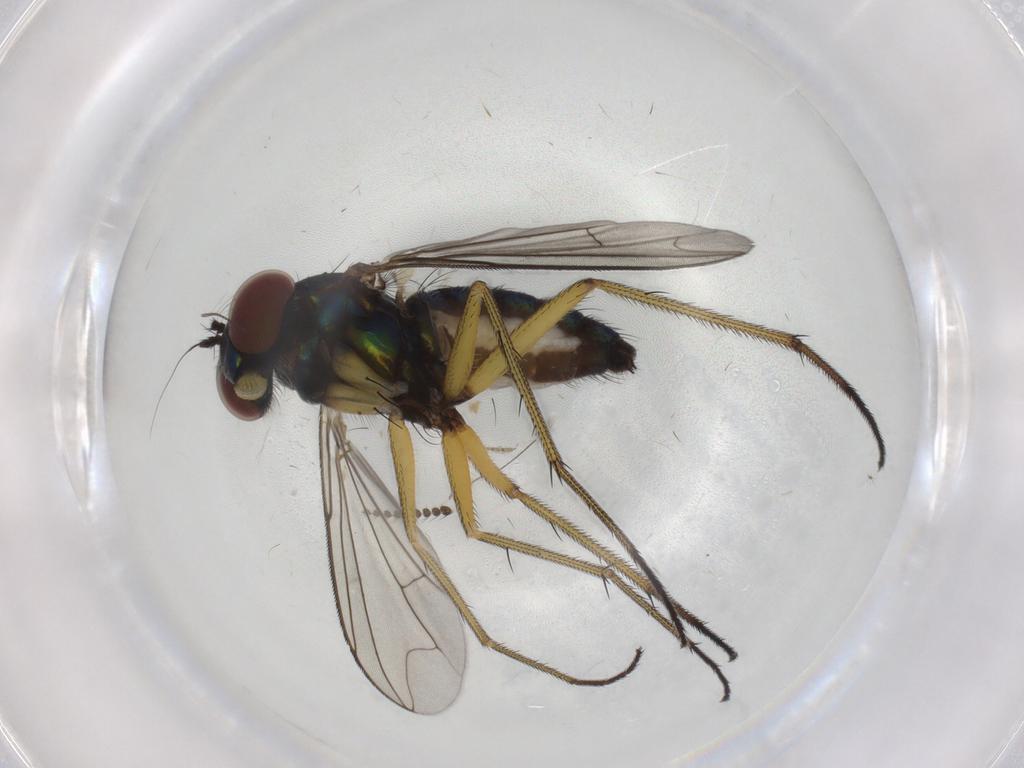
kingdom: Animalia
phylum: Arthropoda
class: Insecta
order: Diptera
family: Dolichopodidae
